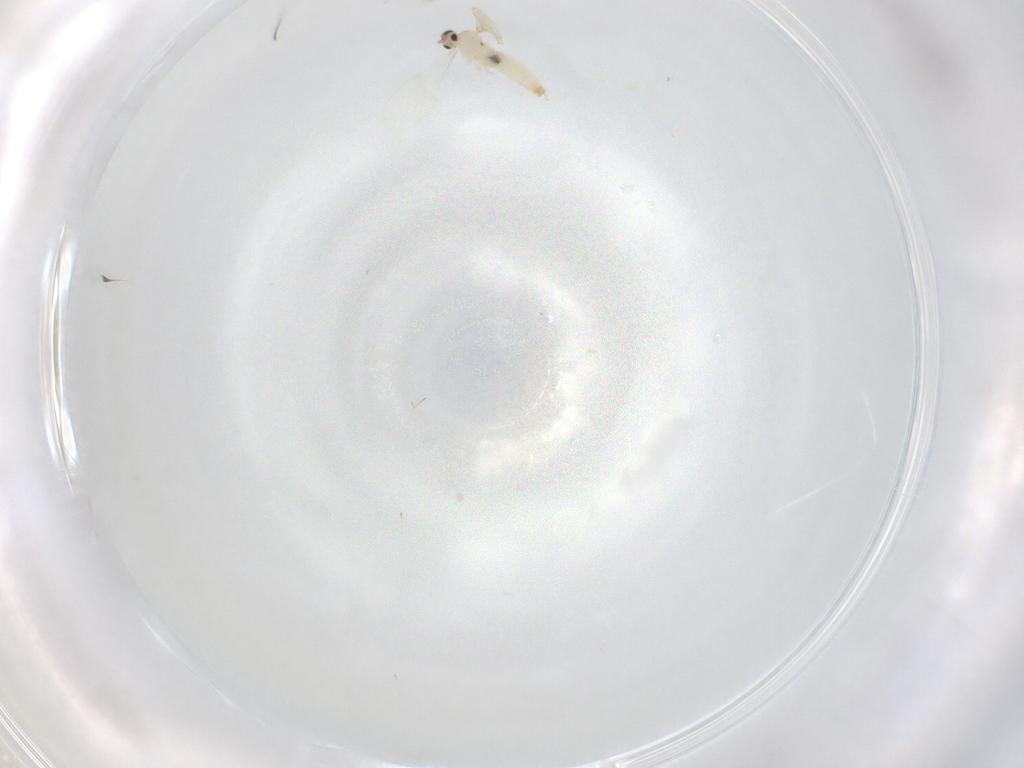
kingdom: Animalia
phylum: Arthropoda
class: Insecta
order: Diptera
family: Cecidomyiidae
